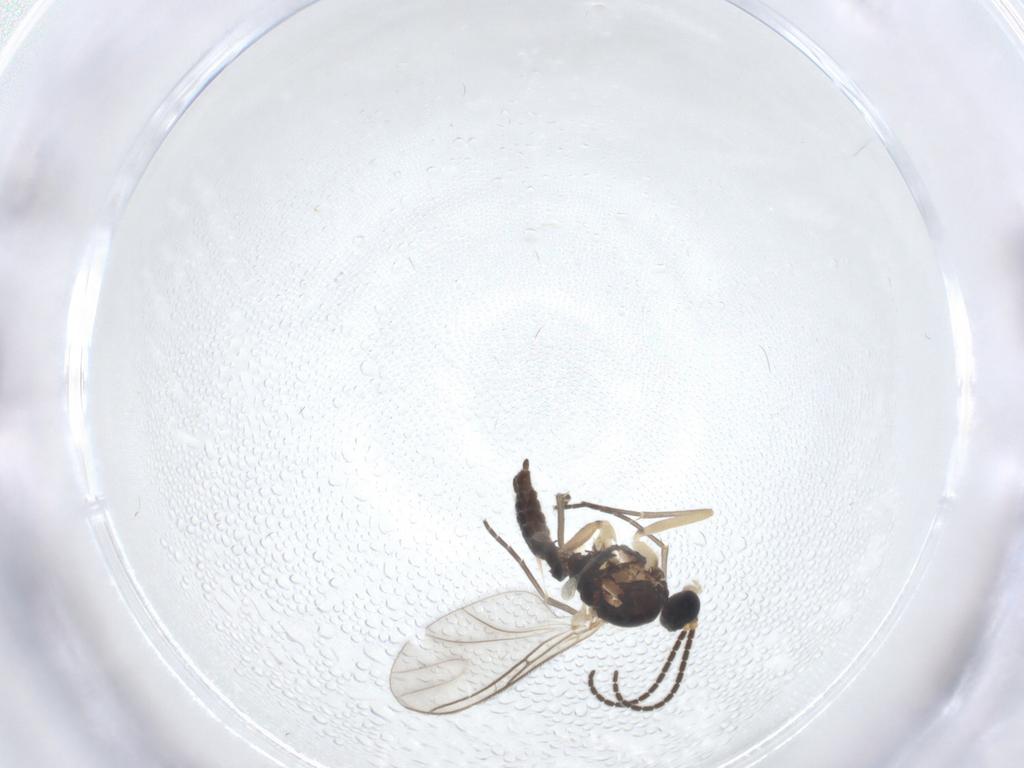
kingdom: Animalia
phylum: Arthropoda
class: Insecta
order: Diptera
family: Sciaridae
